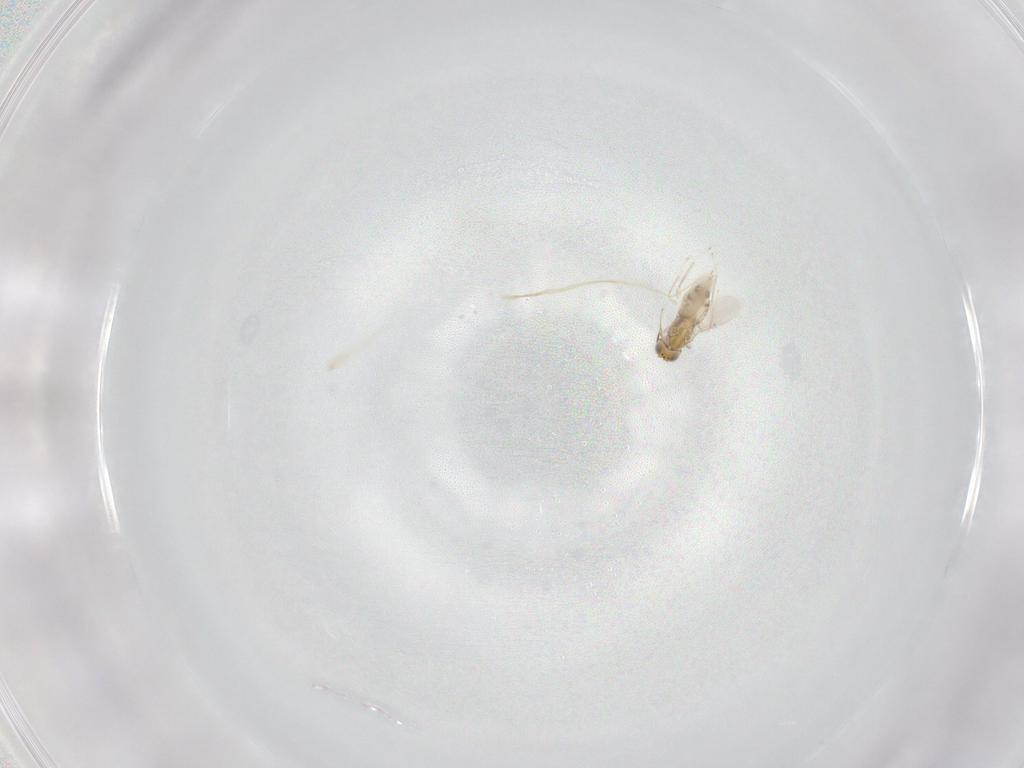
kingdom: Animalia
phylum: Arthropoda
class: Insecta
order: Hymenoptera
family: Aphelinidae
